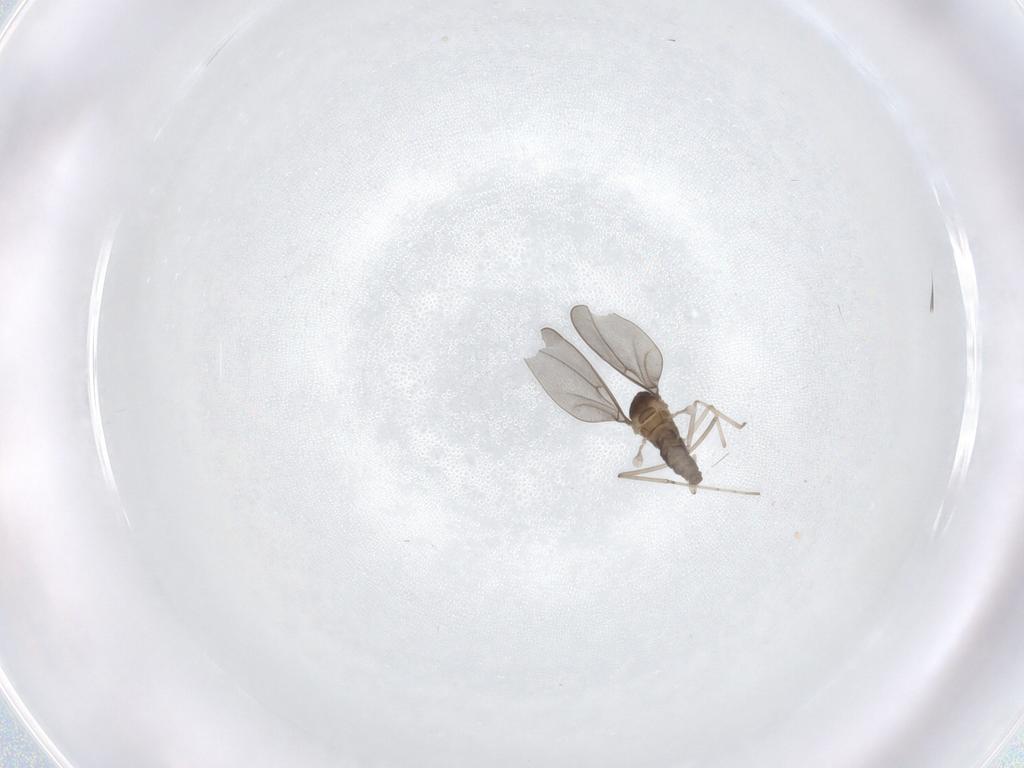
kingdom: Animalia
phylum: Arthropoda
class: Insecta
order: Diptera
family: Cecidomyiidae
